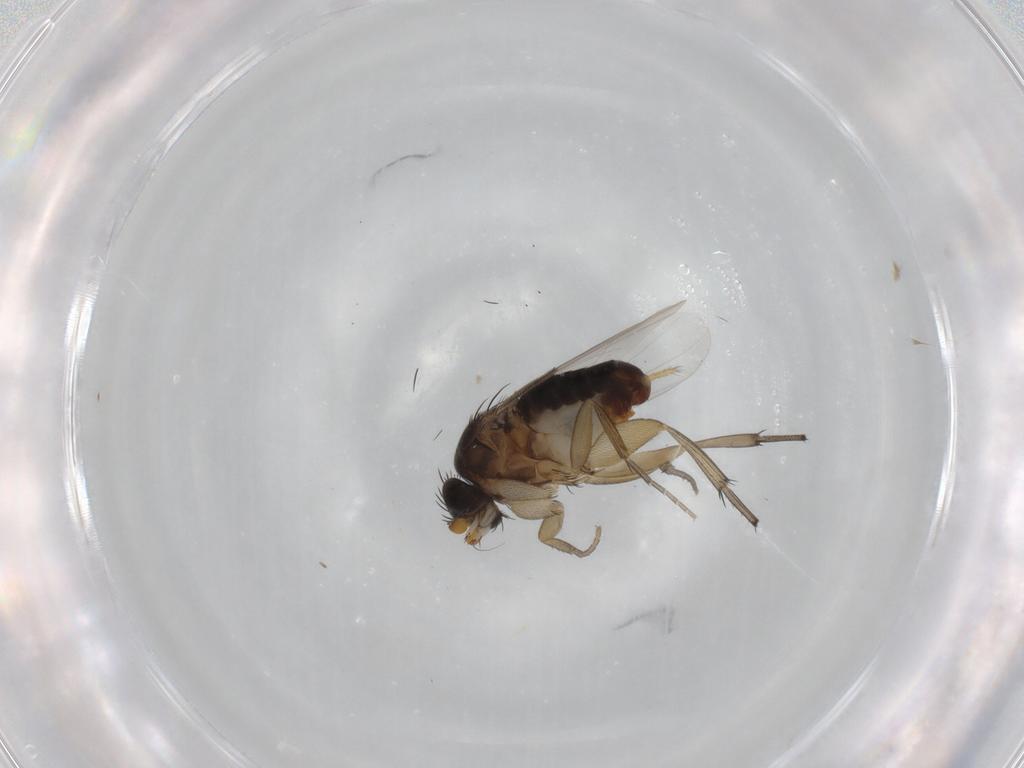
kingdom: Animalia
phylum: Arthropoda
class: Insecta
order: Diptera
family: Phoridae
